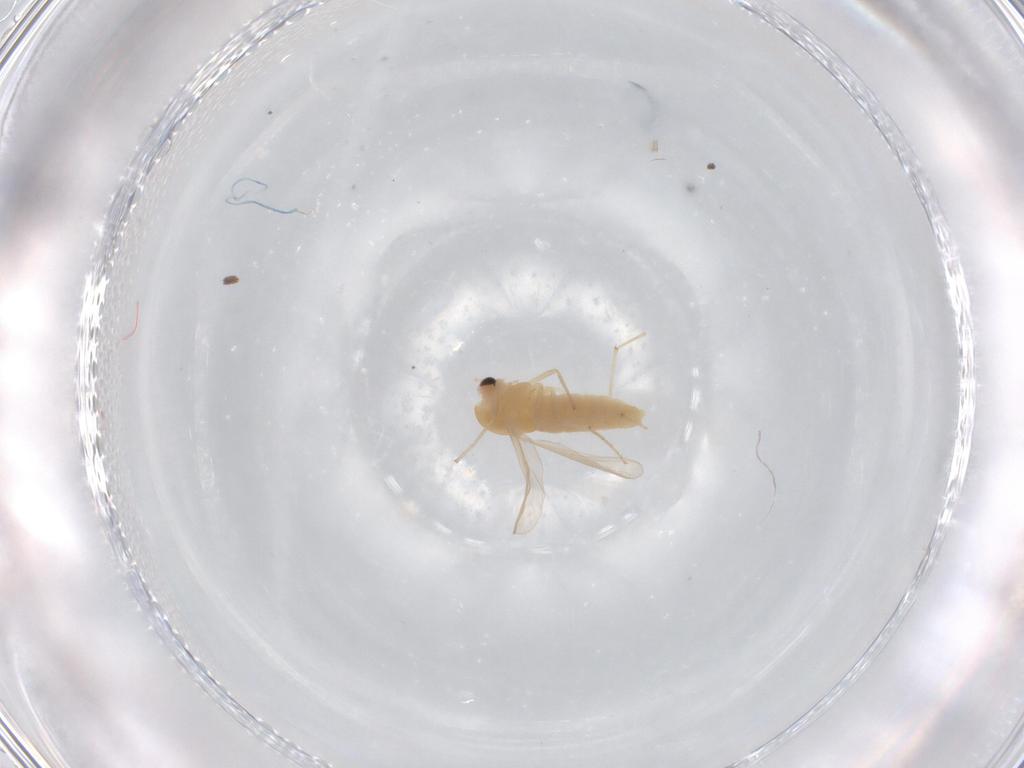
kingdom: Animalia
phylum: Arthropoda
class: Insecta
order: Diptera
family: Chironomidae
